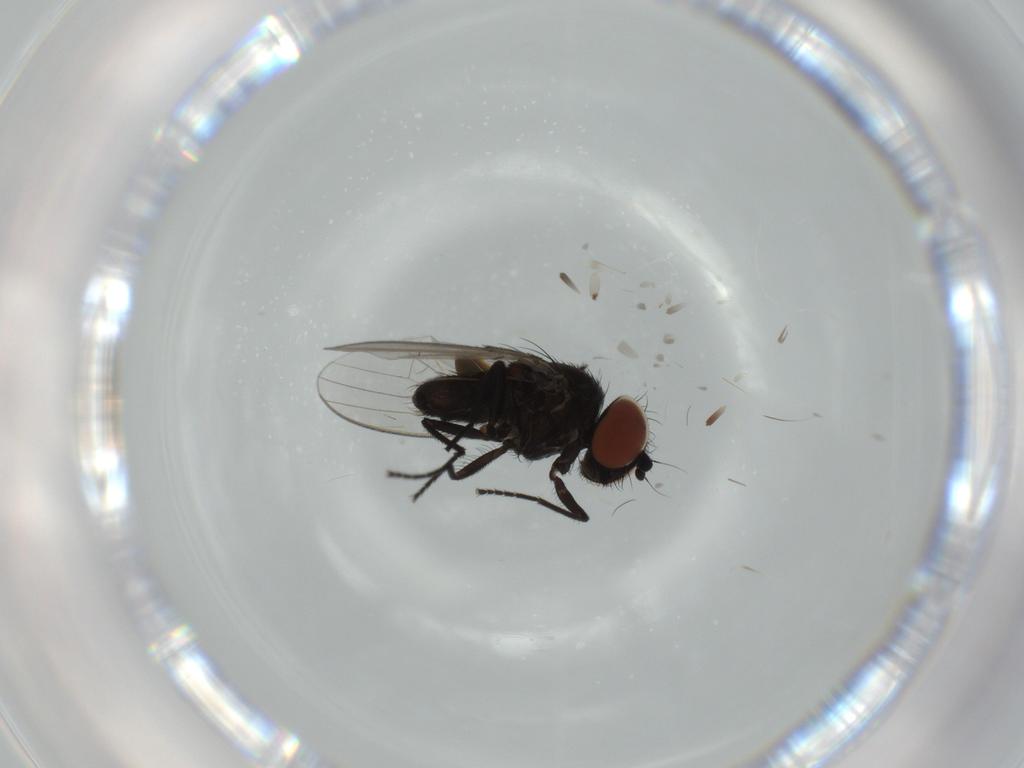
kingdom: Animalia
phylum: Arthropoda
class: Insecta
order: Diptera
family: Milichiidae
